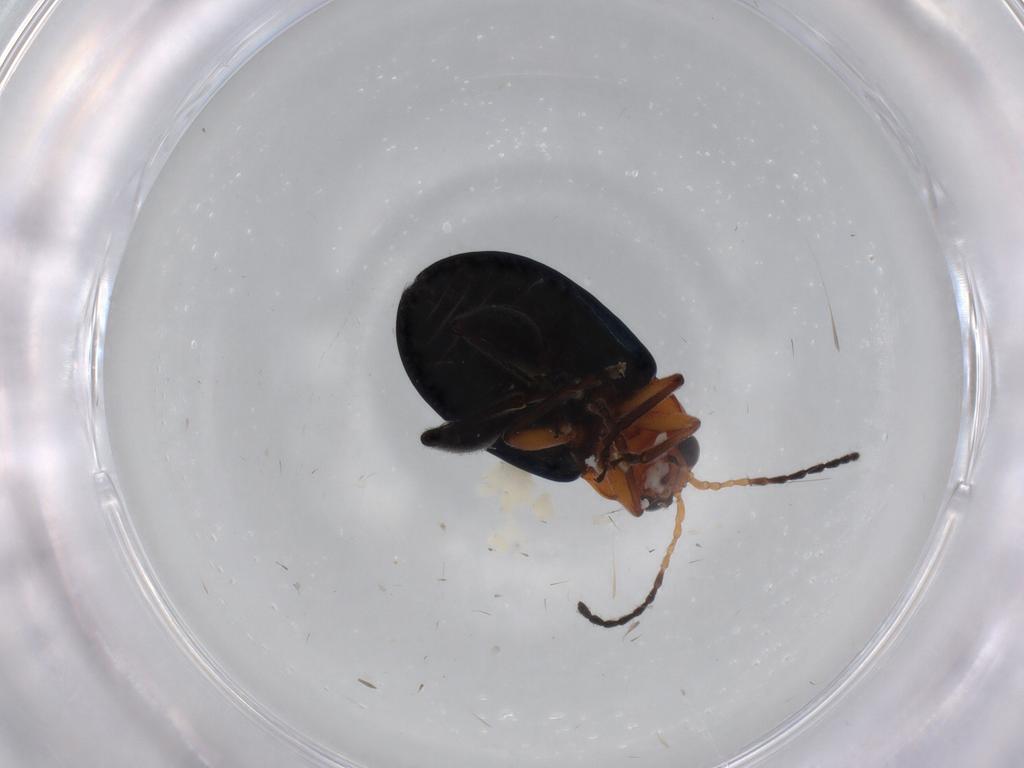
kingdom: Animalia
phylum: Arthropoda
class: Insecta
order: Coleoptera
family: Chrysomelidae
